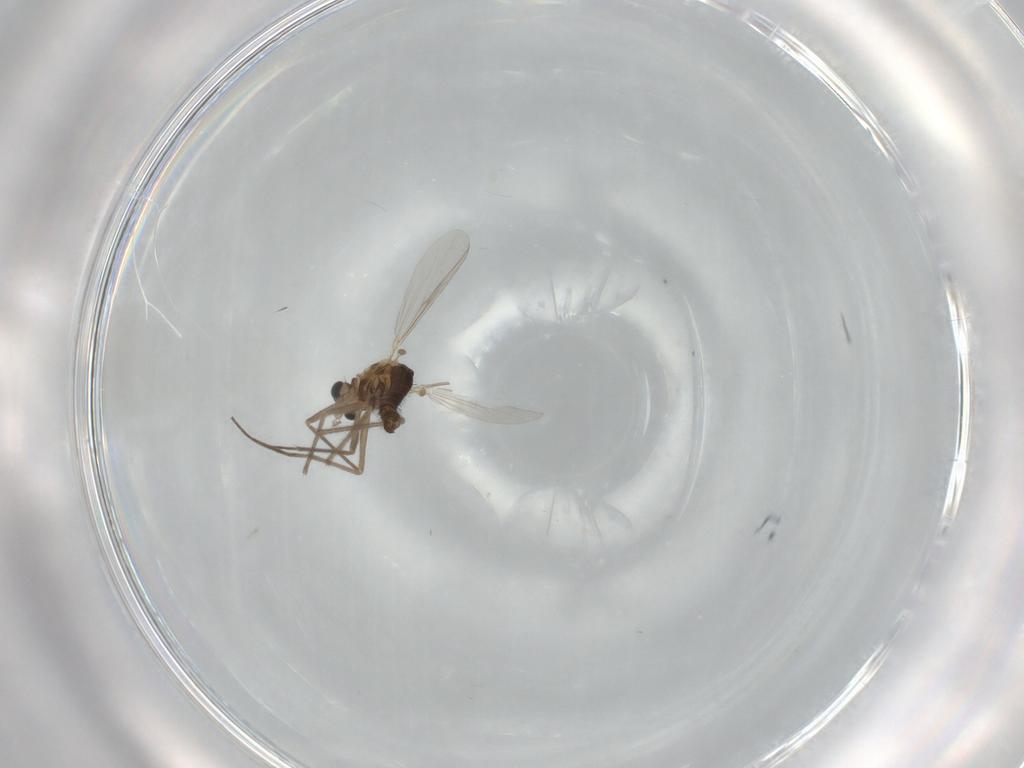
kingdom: Animalia
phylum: Arthropoda
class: Insecta
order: Diptera
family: Chironomidae
